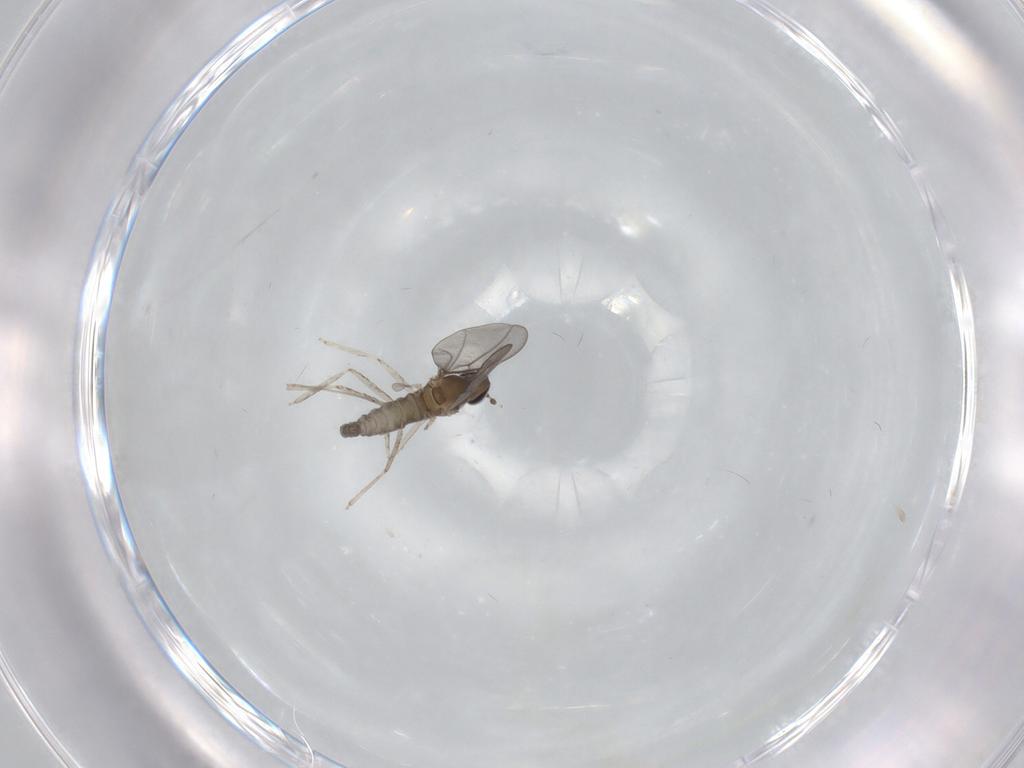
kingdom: Animalia
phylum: Arthropoda
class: Insecta
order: Diptera
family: Cecidomyiidae
